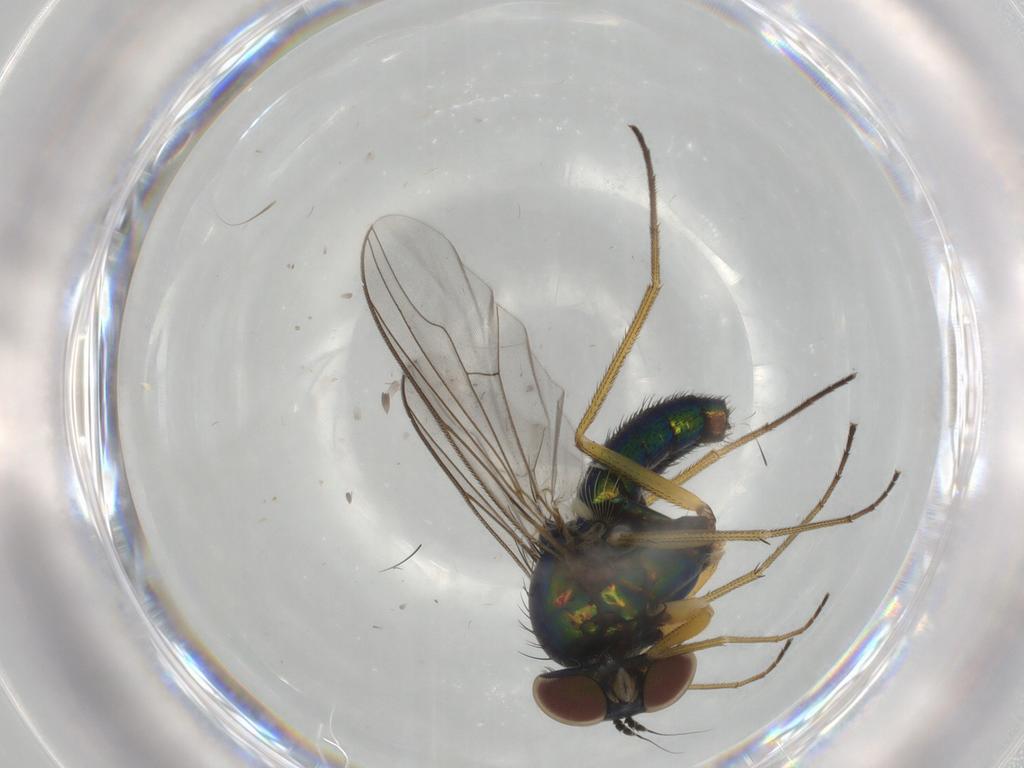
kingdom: Animalia
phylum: Arthropoda
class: Insecta
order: Diptera
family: Dolichopodidae
